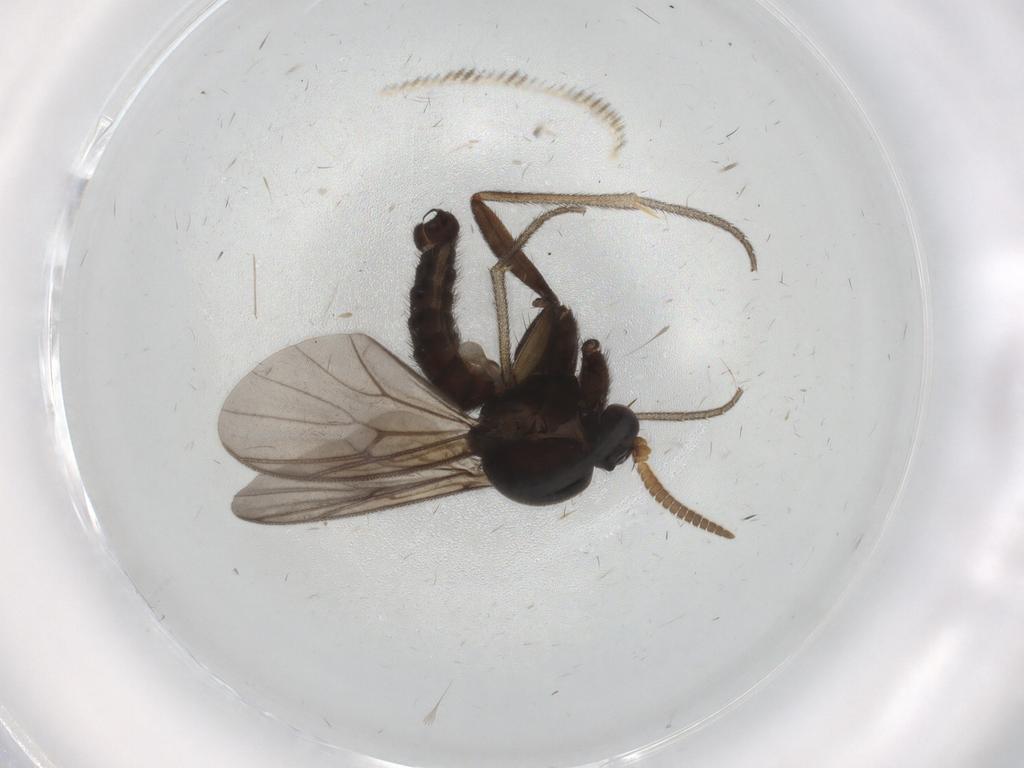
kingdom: Animalia
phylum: Arthropoda
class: Insecta
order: Diptera
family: Mycetophilidae
